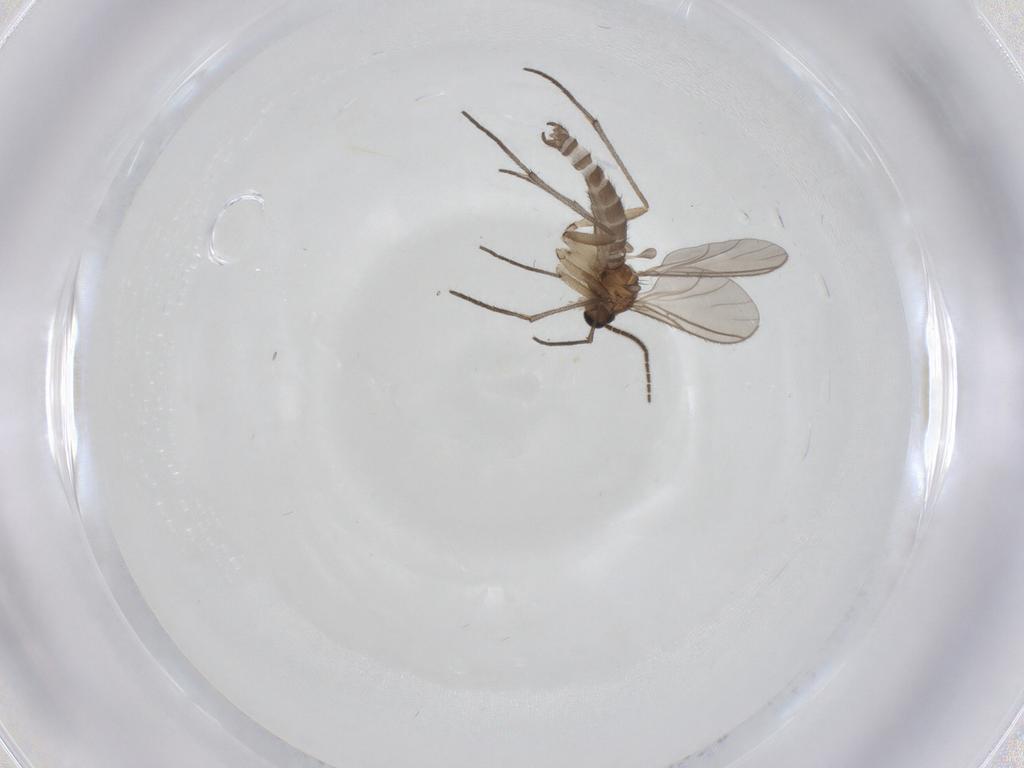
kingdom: Animalia
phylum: Arthropoda
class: Insecta
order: Diptera
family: Sciaridae
